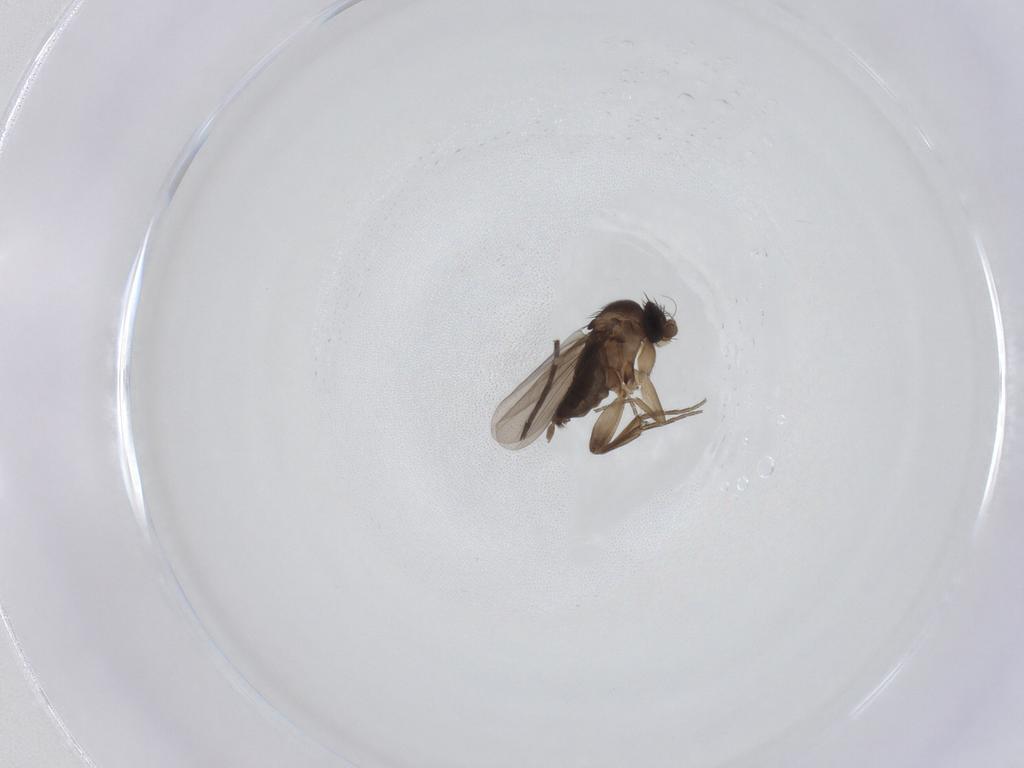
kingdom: Animalia
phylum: Arthropoda
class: Insecta
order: Diptera
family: Phoridae
